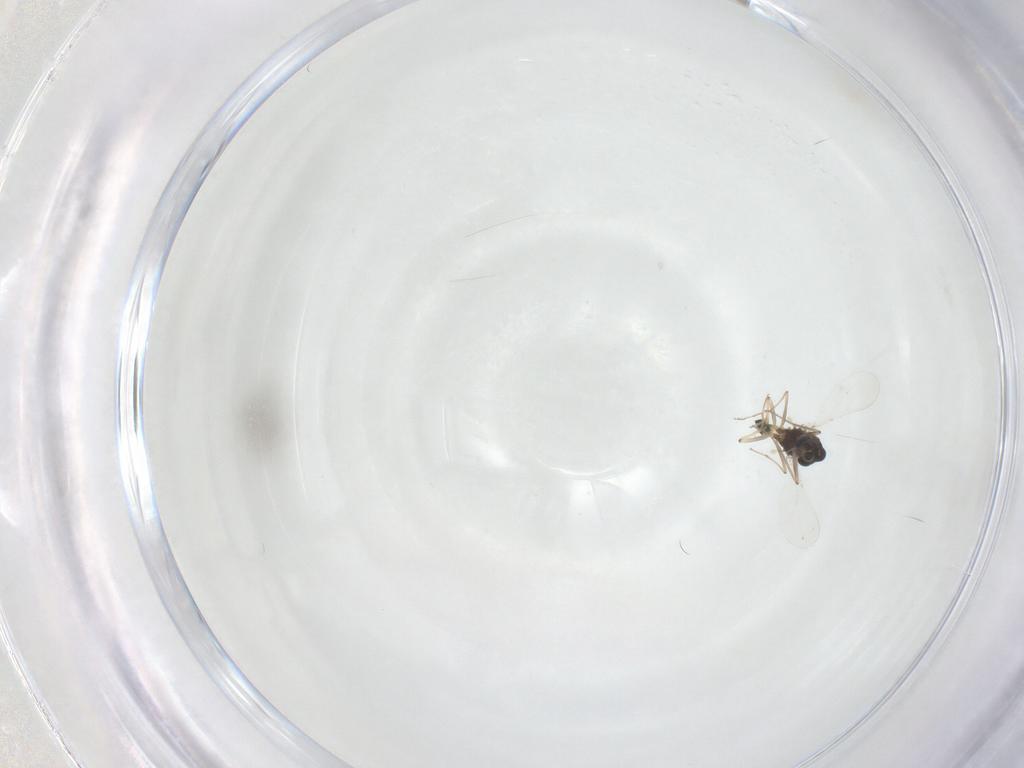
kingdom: Animalia
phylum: Arthropoda
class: Insecta
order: Diptera
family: Chironomidae
